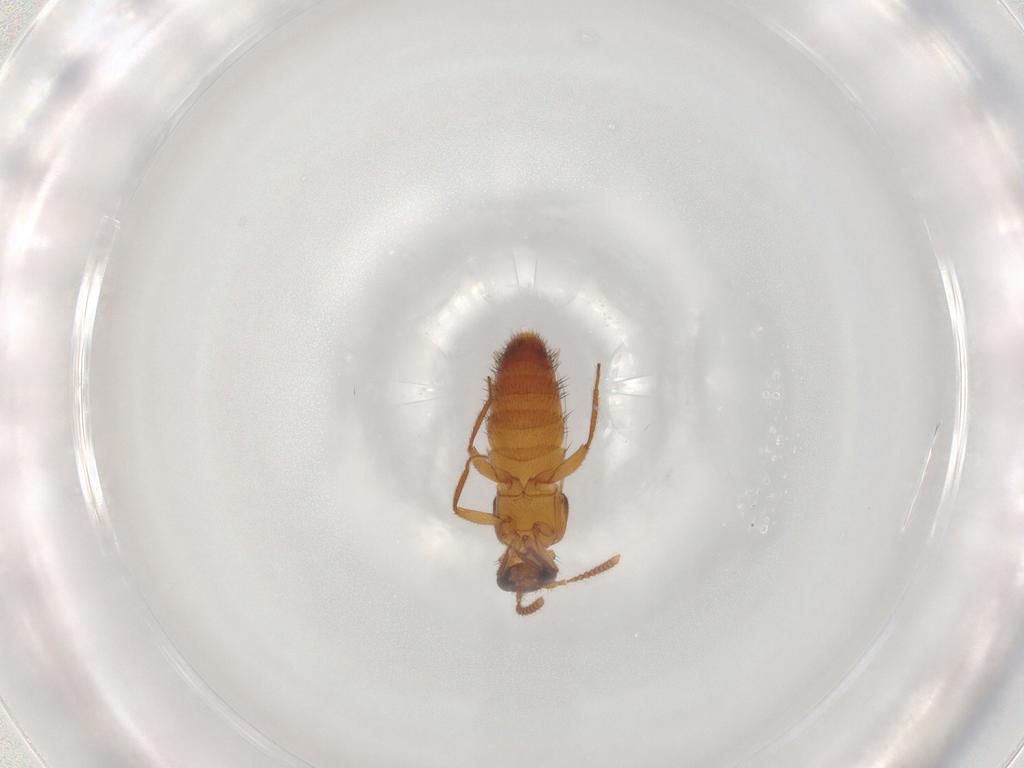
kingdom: Animalia
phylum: Arthropoda
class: Insecta
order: Coleoptera
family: Staphylinidae
